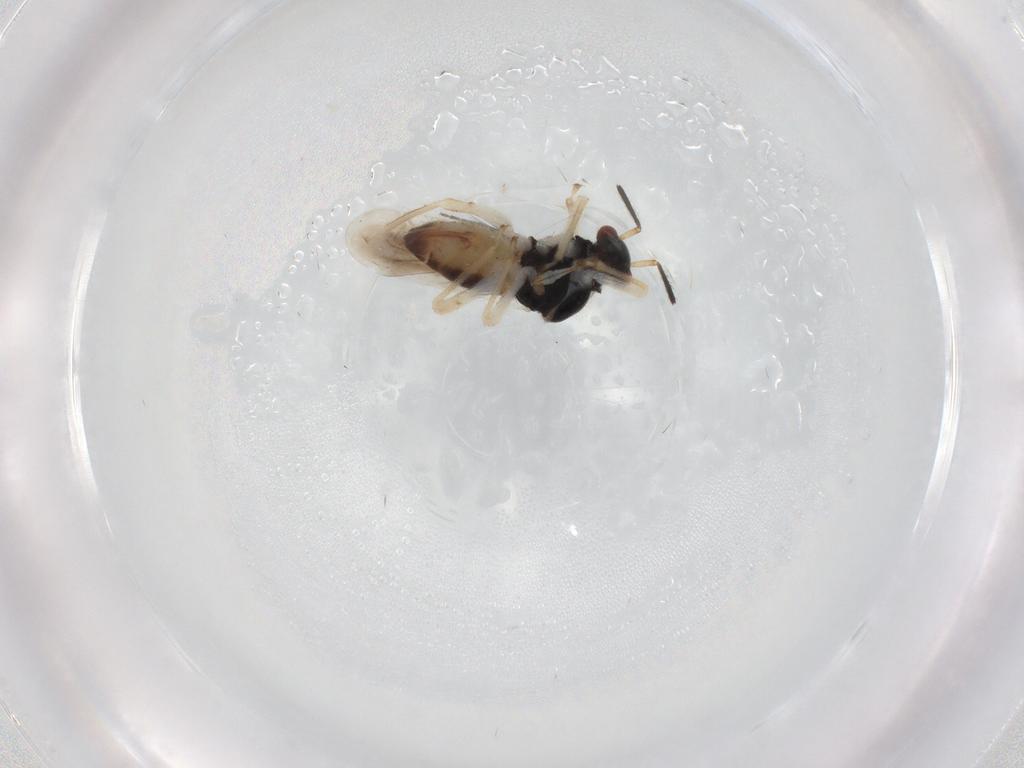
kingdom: Animalia
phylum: Arthropoda
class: Insecta
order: Hemiptera
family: Miridae
